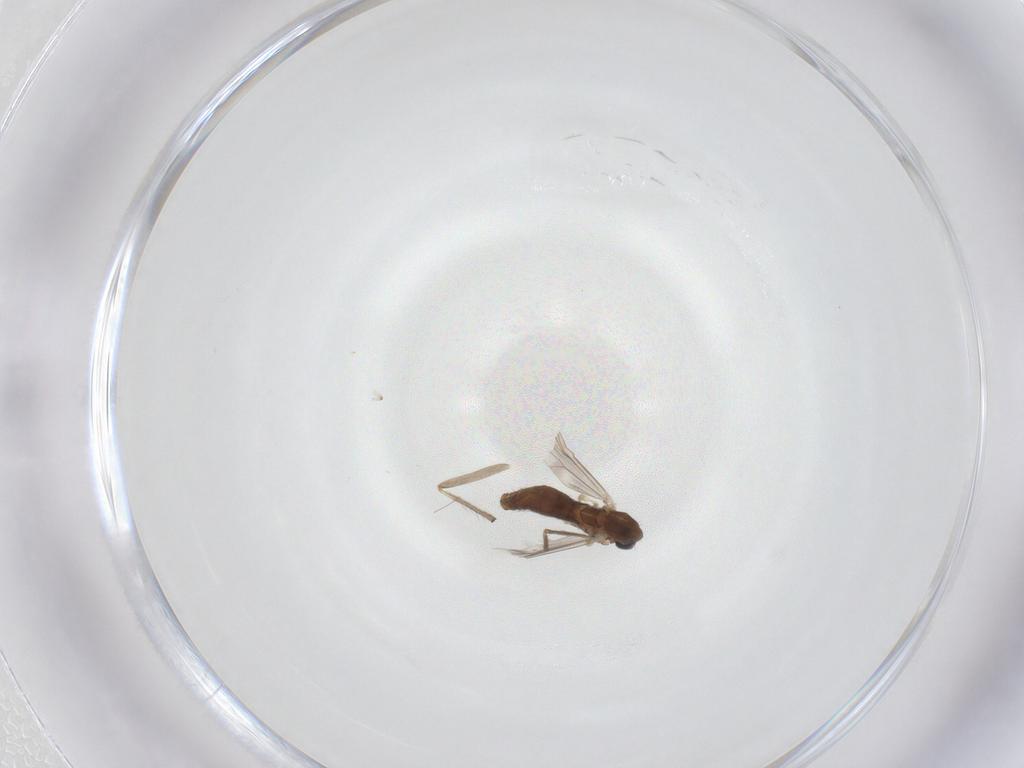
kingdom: Animalia
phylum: Arthropoda
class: Insecta
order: Diptera
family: Chironomidae
